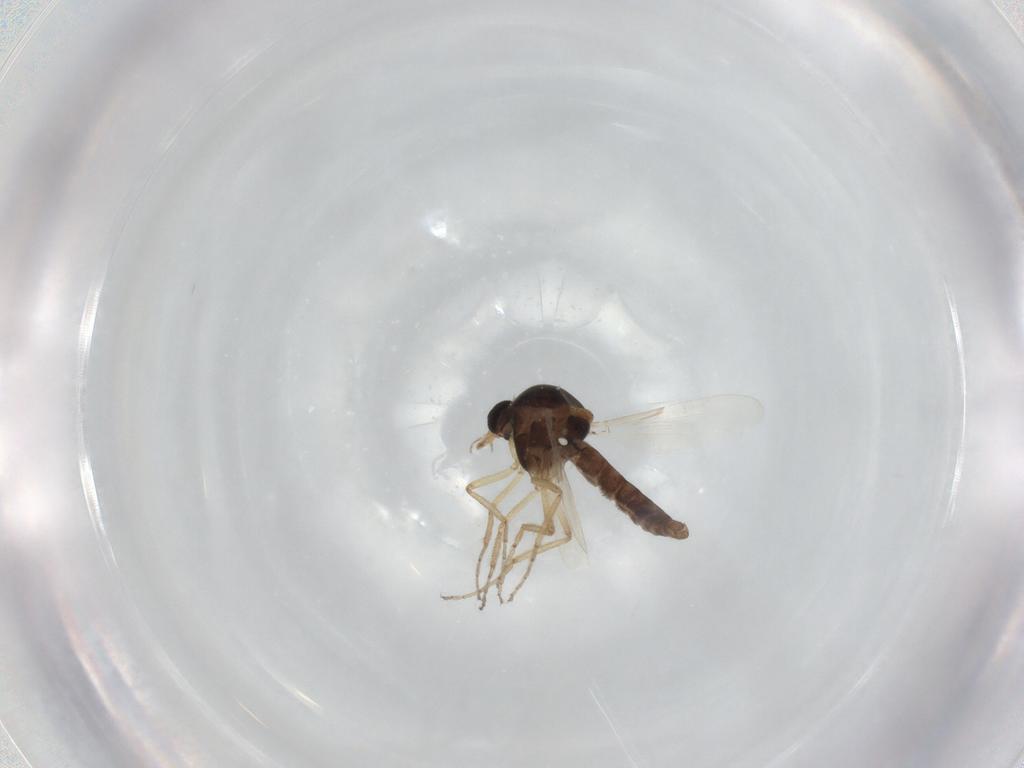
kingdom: Animalia
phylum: Arthropoda
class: Insecta
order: Diptera
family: Ceratopogonidae
